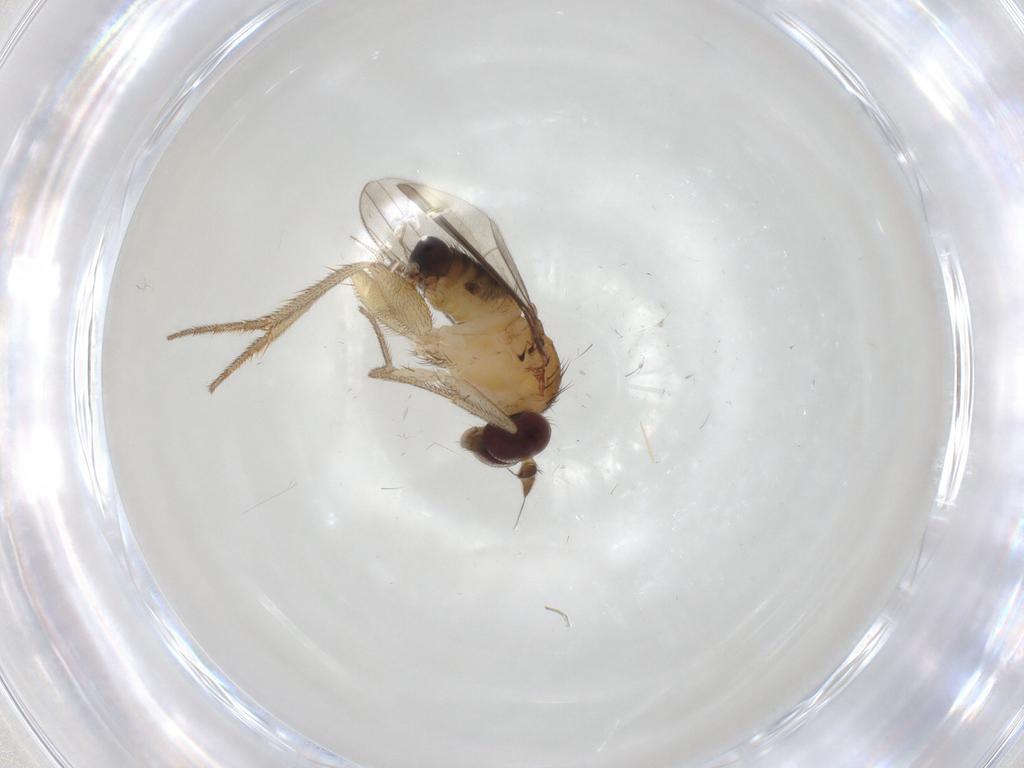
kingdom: Animalia
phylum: Arthropoda
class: Insecta
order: Diptera
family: Dolichopodidae
